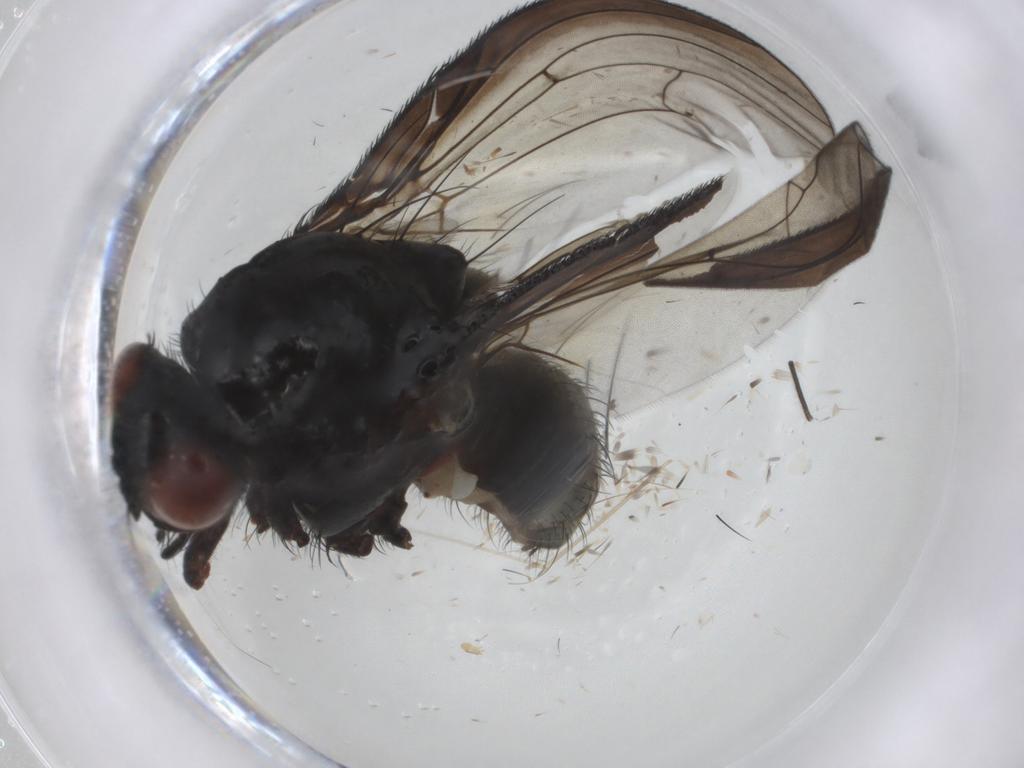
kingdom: Animalia
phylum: Arthropoda
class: Insecta
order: Diptera
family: Anthomyiidae
